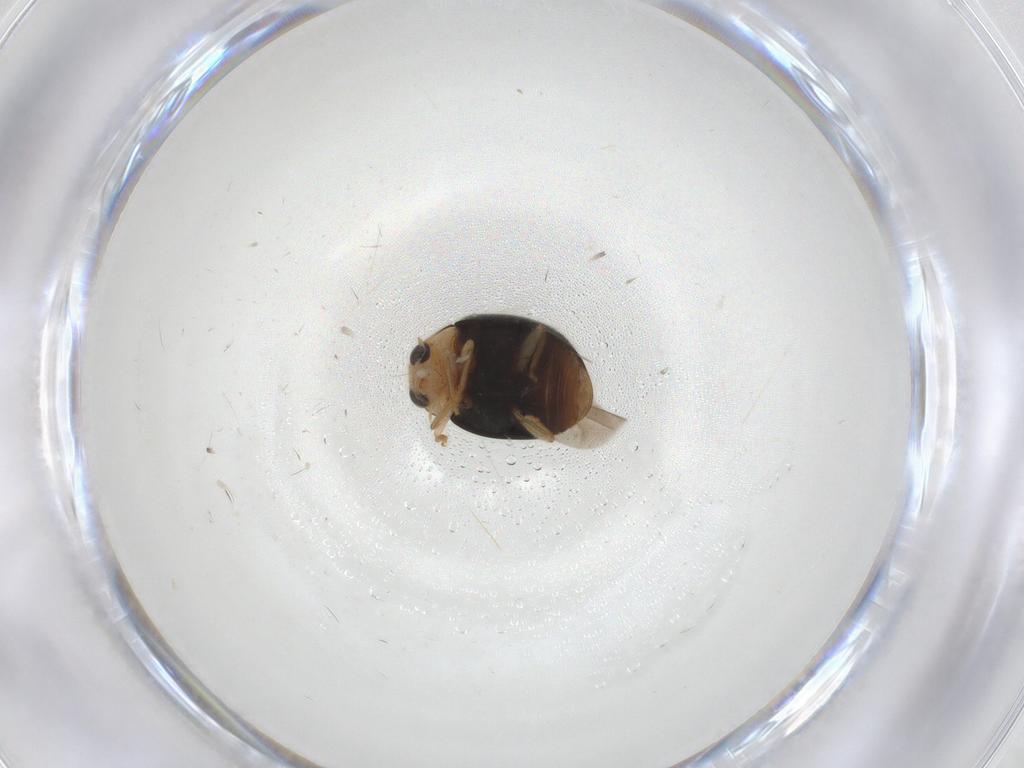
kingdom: Animalia
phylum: Arthropoda
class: Insecta
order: Coleoptera
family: Coccinellidae
